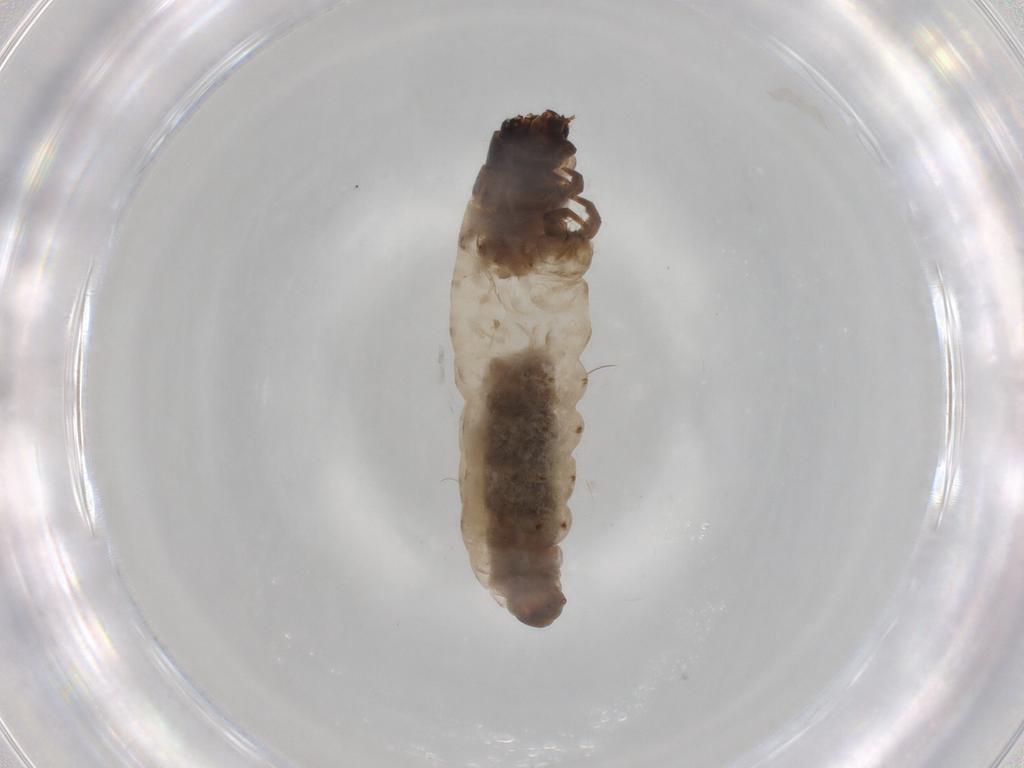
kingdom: Animalia
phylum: Arthropoda
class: Insecta
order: Lepidoptera
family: Psychidae
